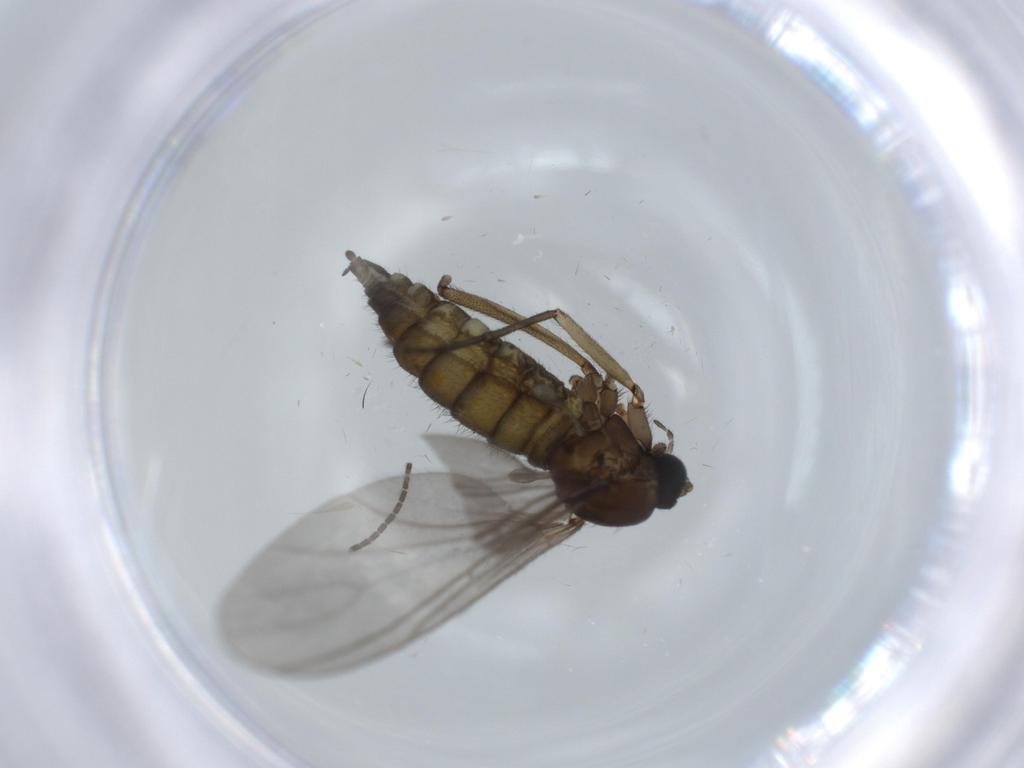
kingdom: Animalia
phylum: Arthropoda
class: Insecta
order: Diptera
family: Sciaridae
